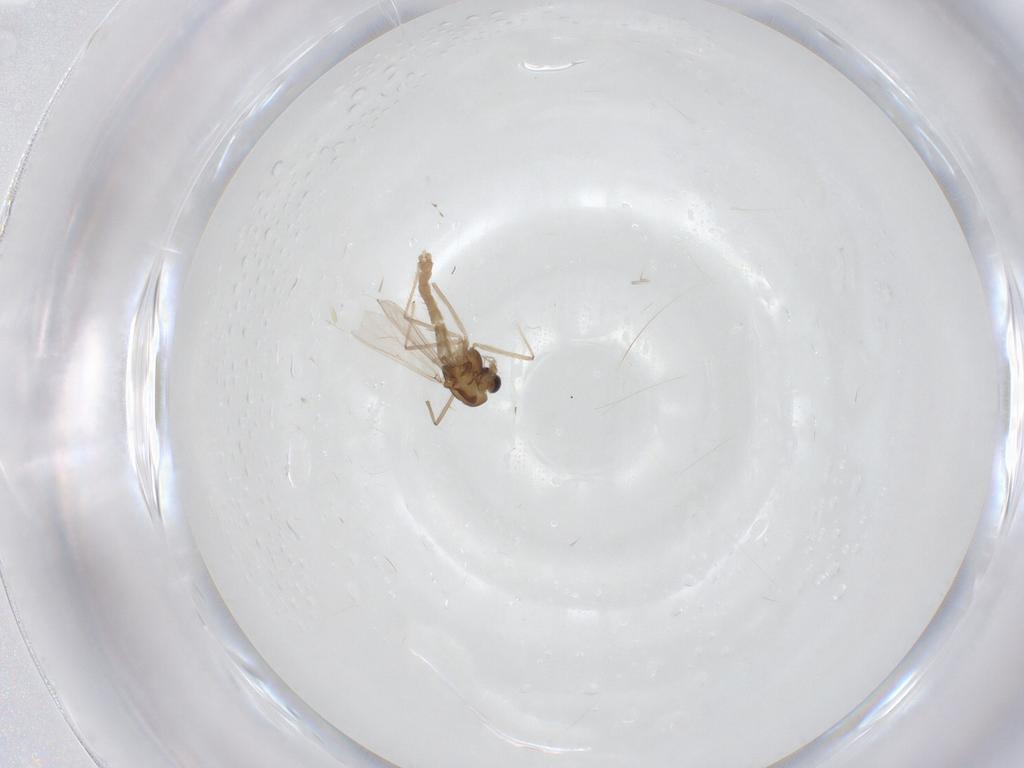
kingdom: Animalia
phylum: Arthropoda
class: Insecta
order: Diptera
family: Chironomidae
